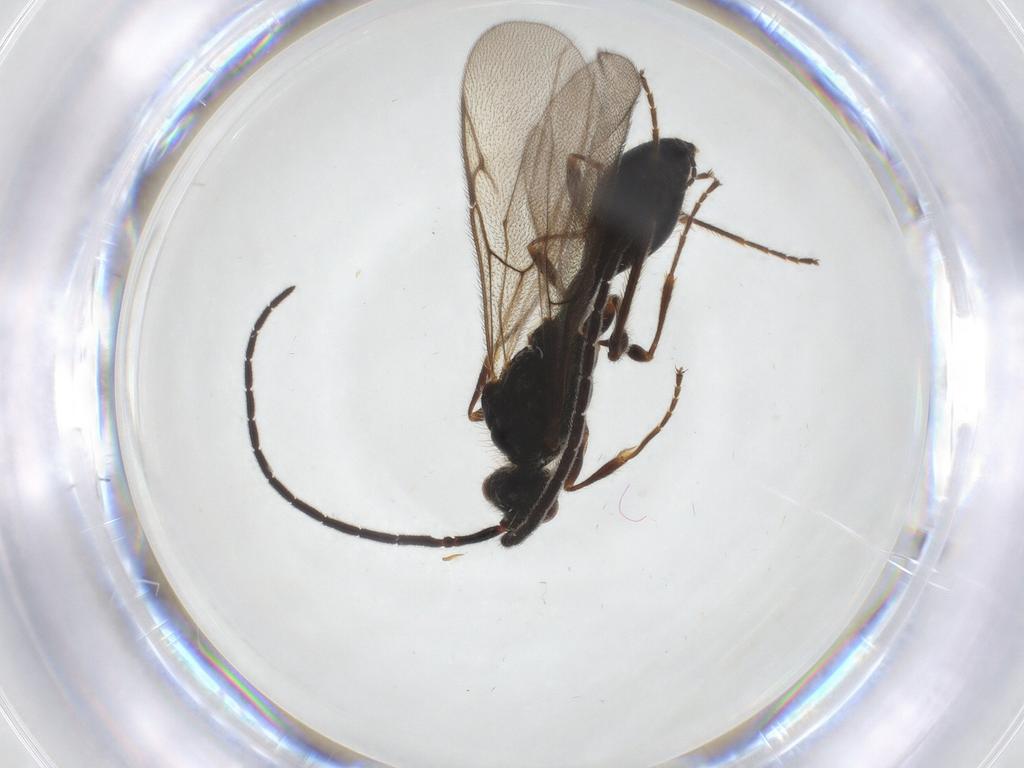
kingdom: Animalia
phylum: Arthropoda
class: Insecta
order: Hymenoptera
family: Diapriidae
